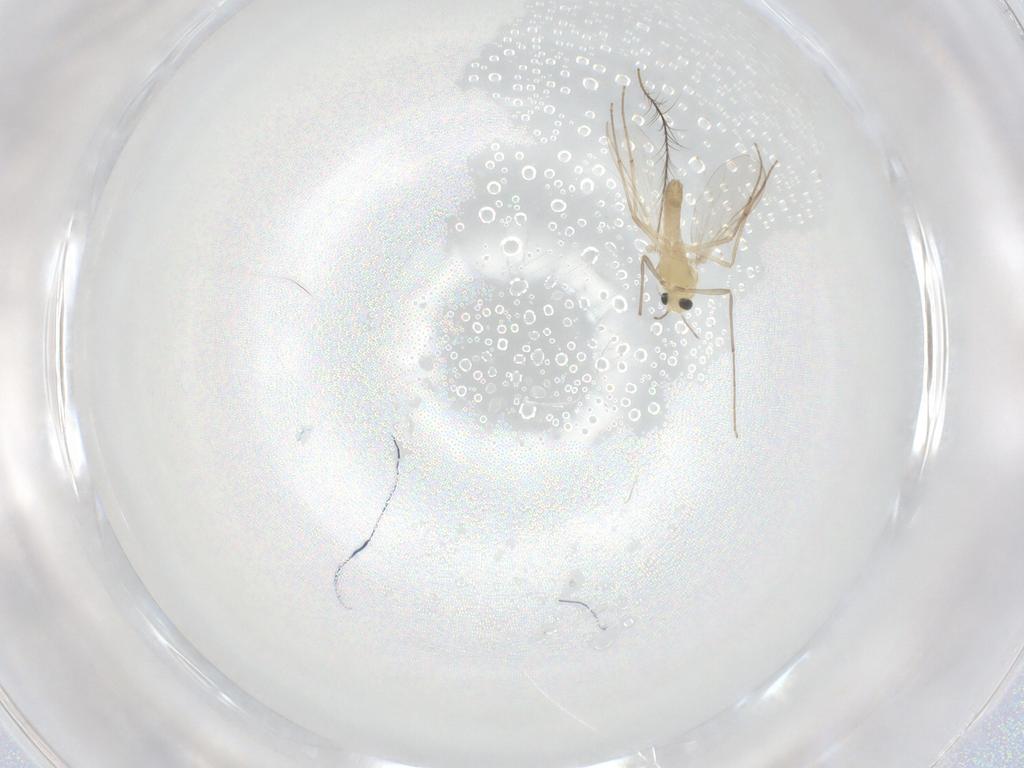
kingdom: Animalia
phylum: Arthropoda
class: Insecta
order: Diptera
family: Chironomidae
